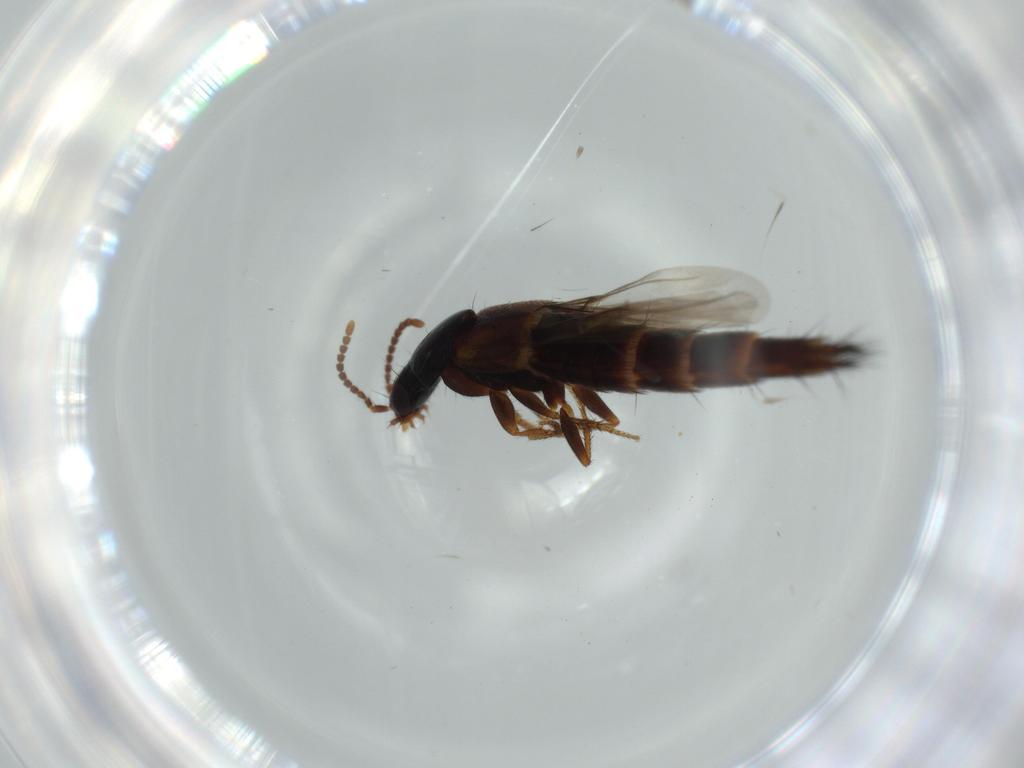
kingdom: Animalia
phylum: Arthropoda
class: Insecta
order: Coleoptera
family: Staphylinidae
